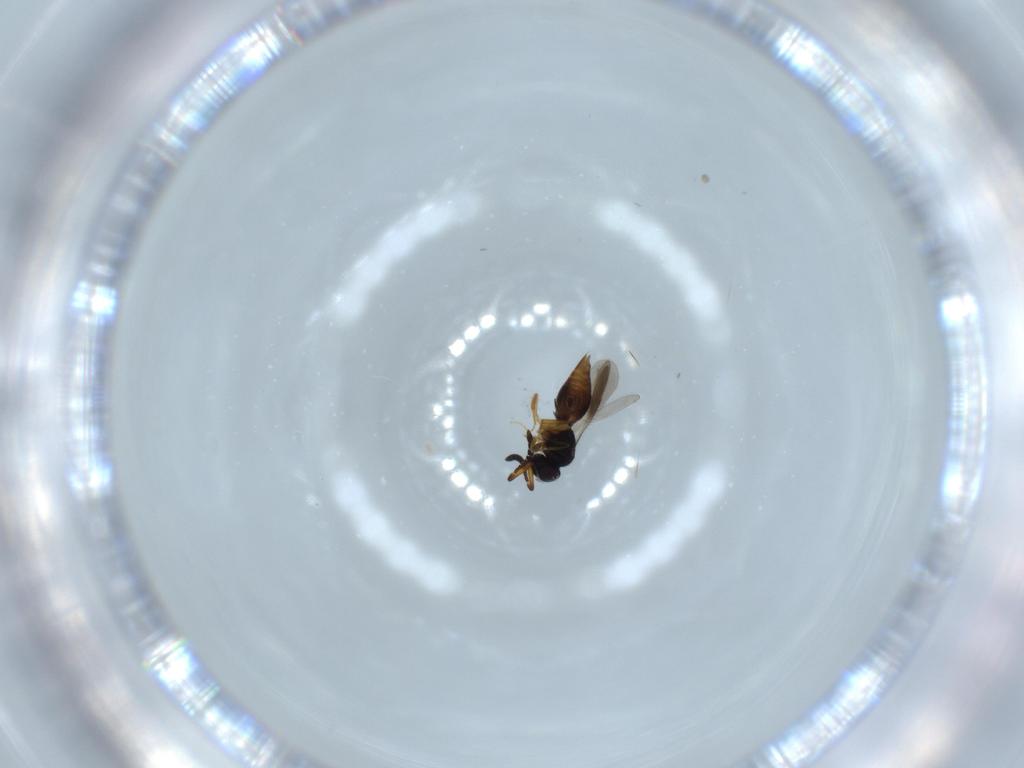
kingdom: Animalia
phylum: Arthropoda
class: Insecta
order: Hymenoptera
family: Ceraphronidae
